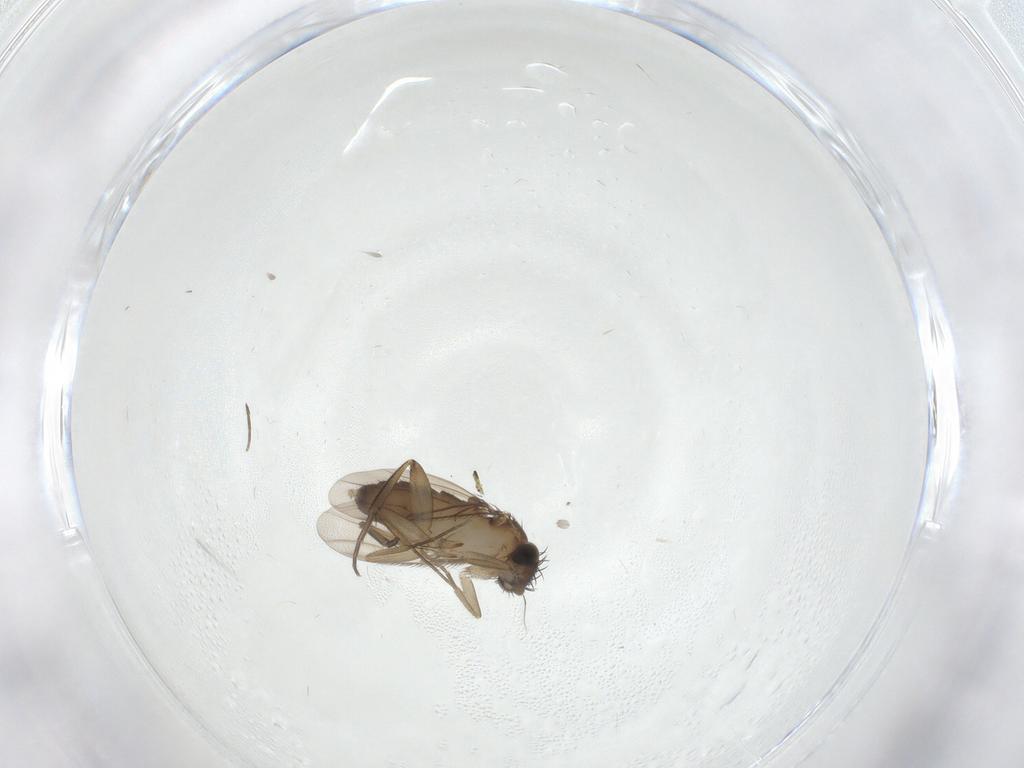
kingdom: Animalia
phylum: Arthropoda
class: Insecta
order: Diptera
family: Phoridae
